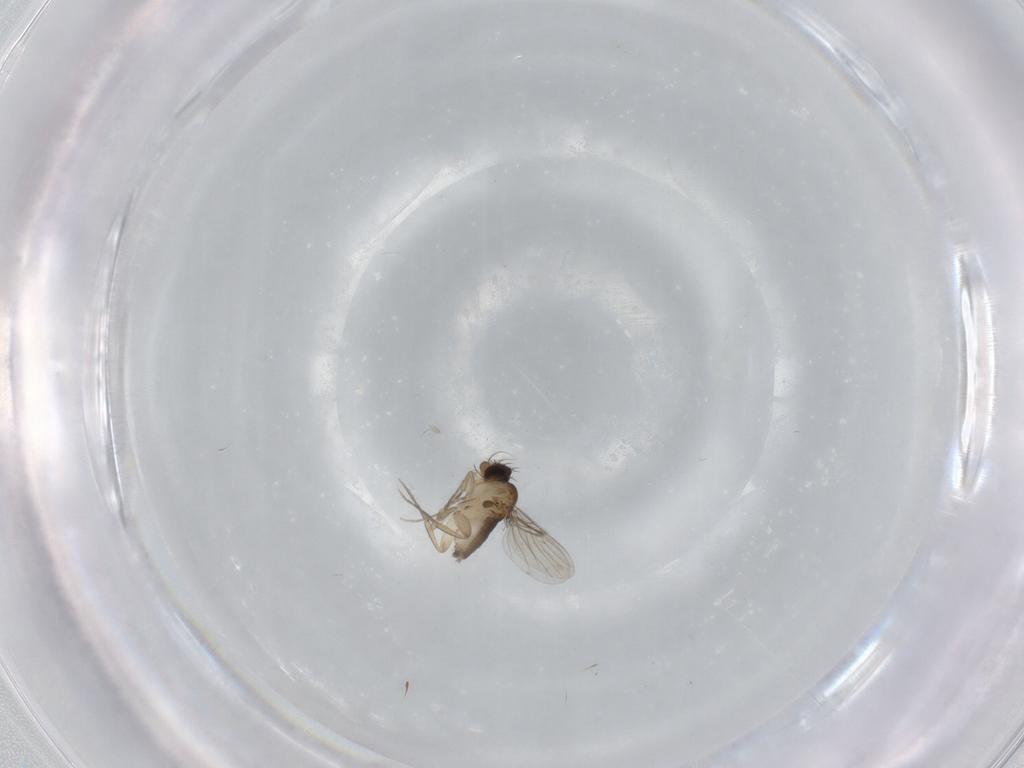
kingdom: Animalia
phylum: Arthropoda
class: Insecta
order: Diptera
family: Phoridae
